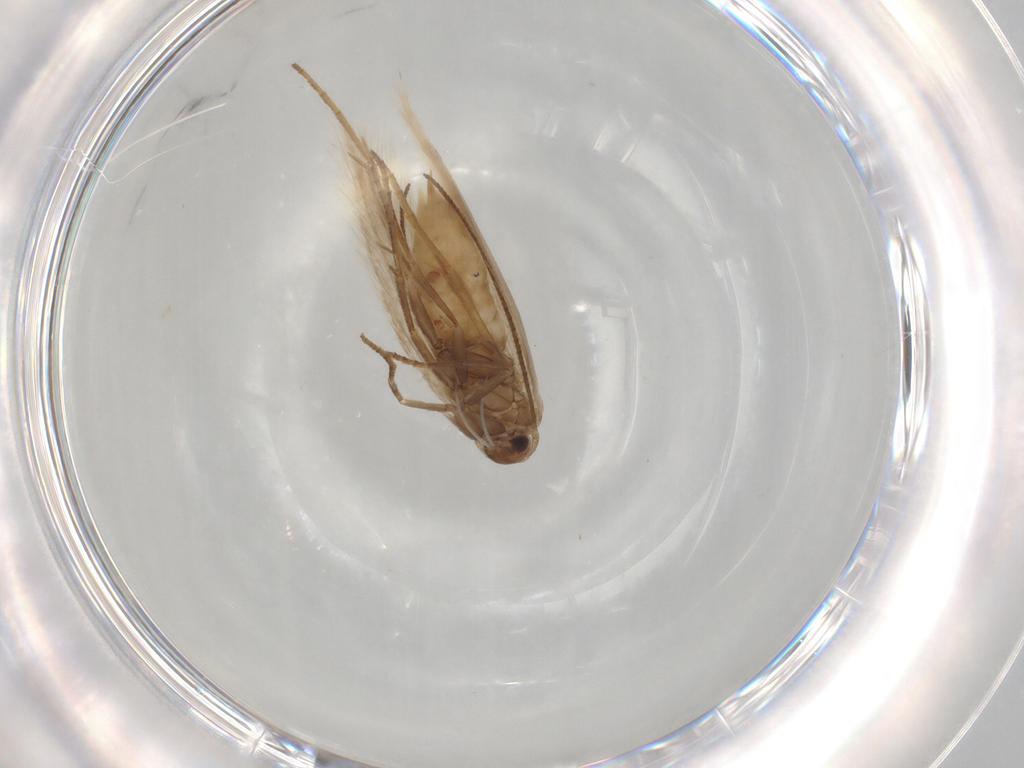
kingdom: Animalia
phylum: Arthropoda
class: Insecta
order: Lepidoptera
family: Bucculatricidae
